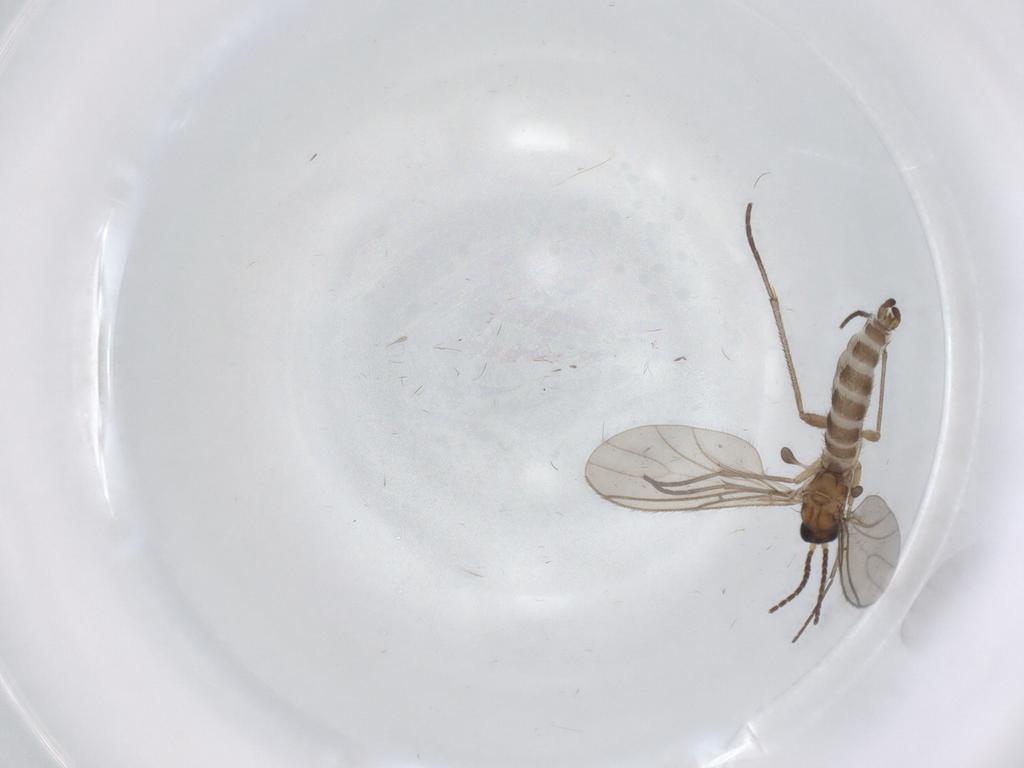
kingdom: Animalia
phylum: Arthropoda
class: Insecta
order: Diptera
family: Sciaridae
